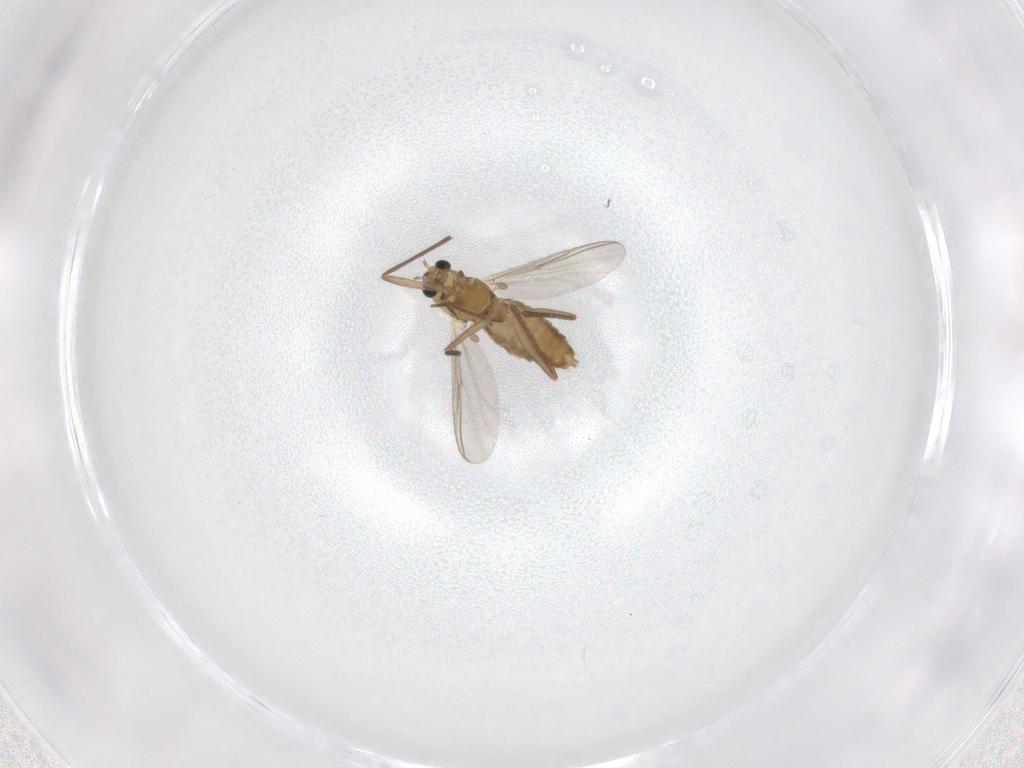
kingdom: Animalia
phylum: Arthropoda
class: Insecta
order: Diptera
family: Chironomidae
